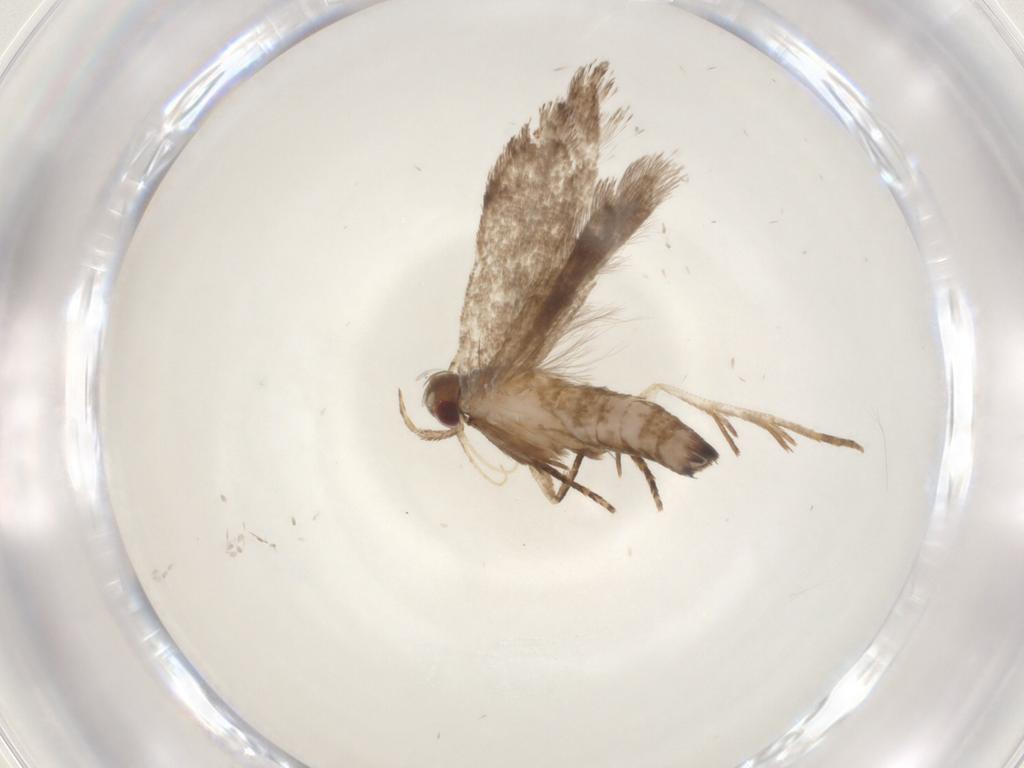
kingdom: Animalia
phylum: Arthropoda
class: Insecta
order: Lepidoptera
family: Gelechiidae
